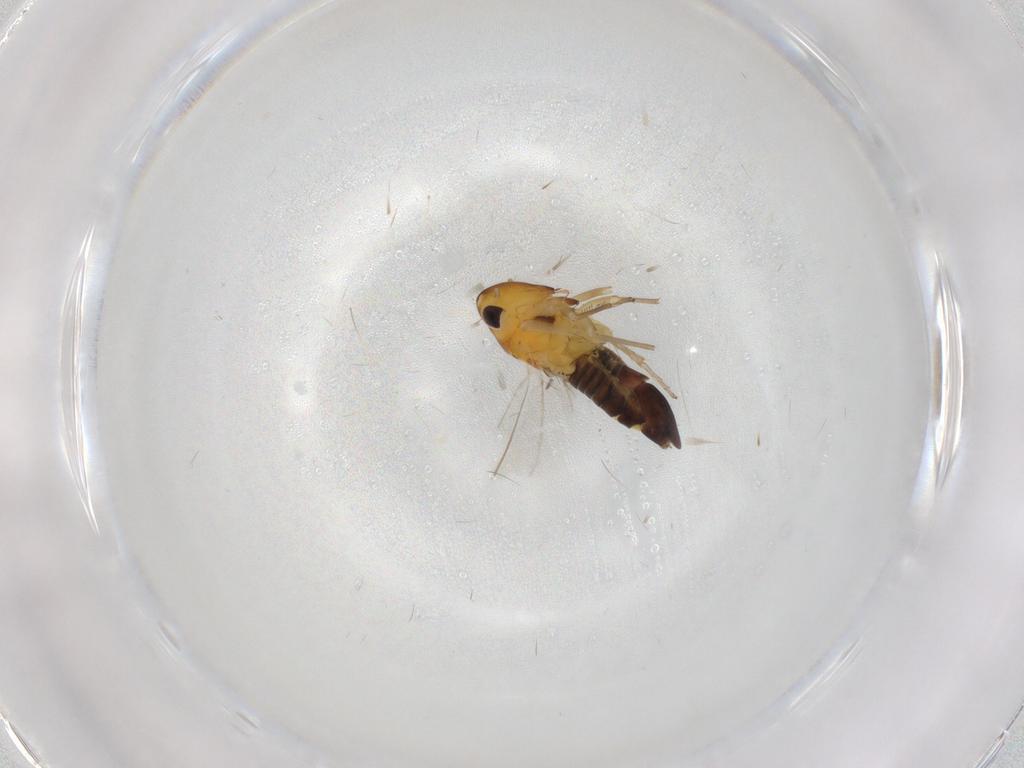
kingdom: Animalia
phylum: Arthropoda
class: Insecta
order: Hemiptera
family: Cicadellidae
